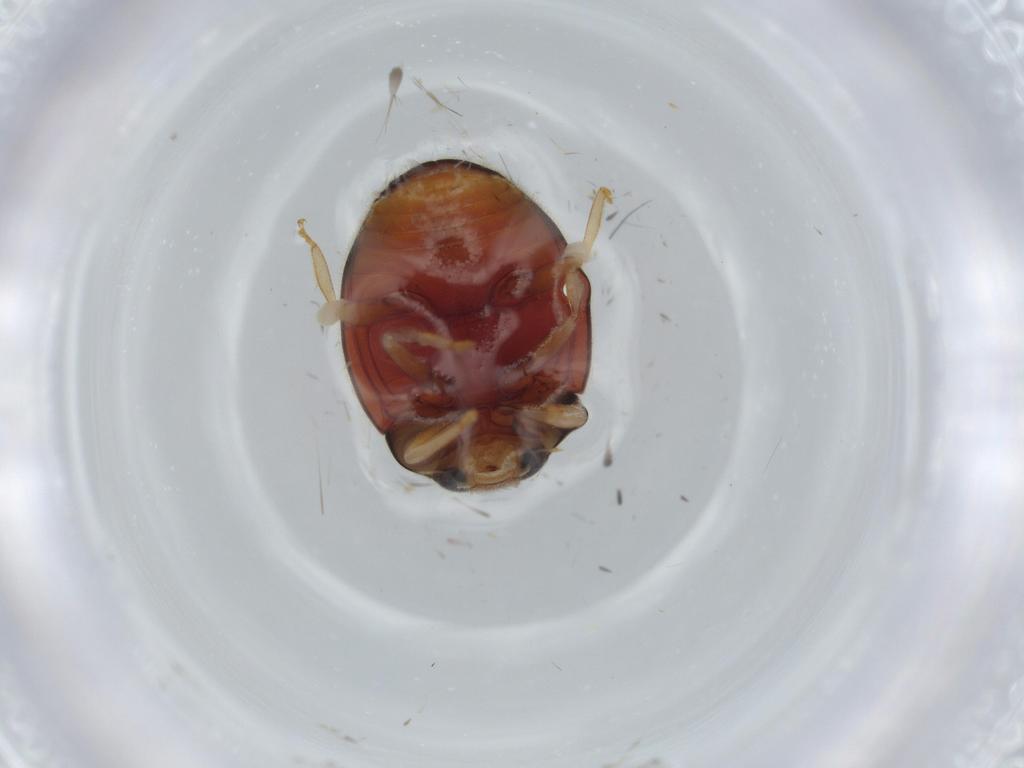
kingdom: Animalia
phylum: Arthropoda
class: Insecta
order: Coleoptera
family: Coccinellidae
